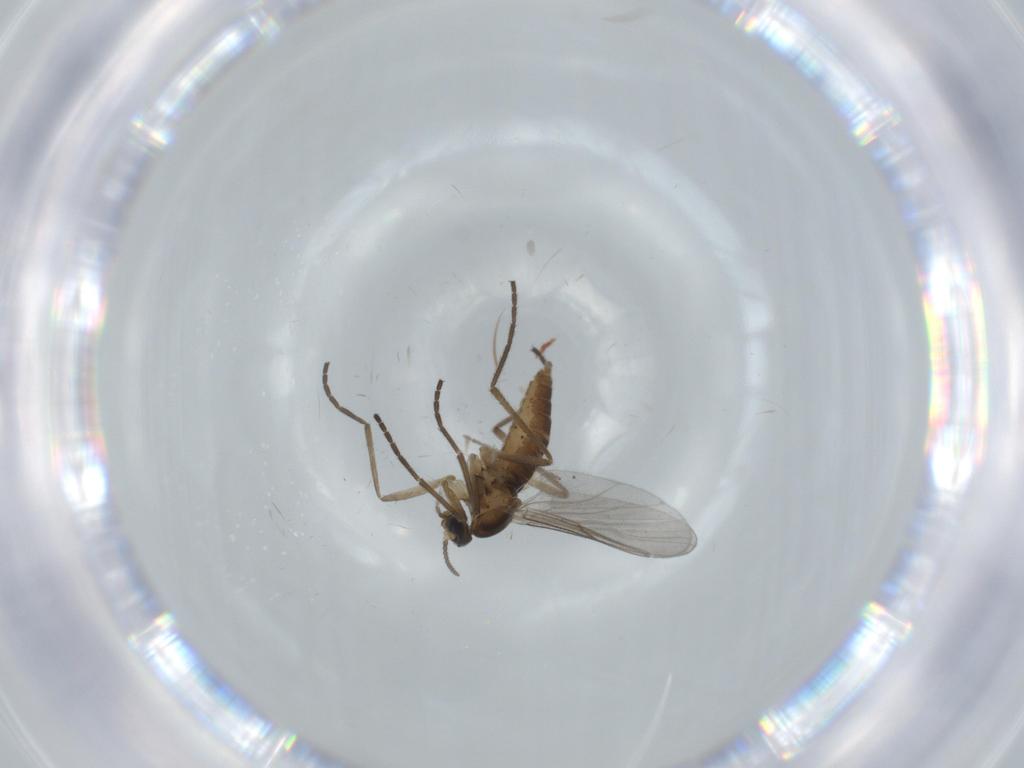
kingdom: Animalia
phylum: Arthropoda
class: Insecta
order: Diptera
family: Cecidomyiidae
